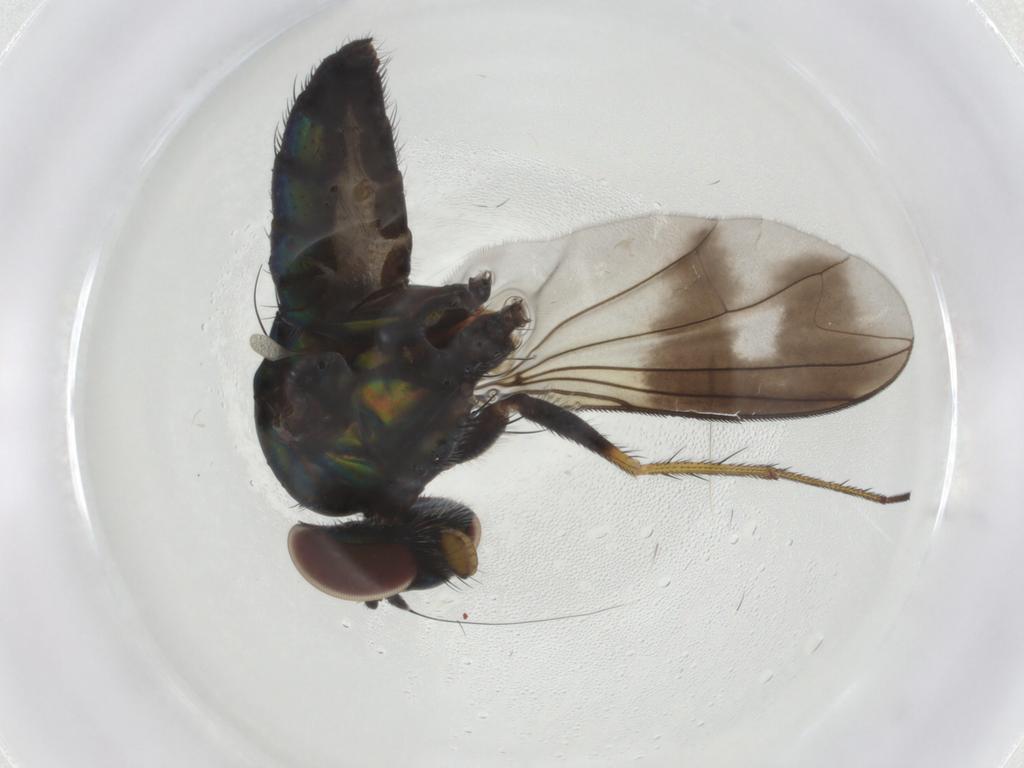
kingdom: Animalia
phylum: Arthropoda
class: Insecta
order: Diptera
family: Dolichopodidae
